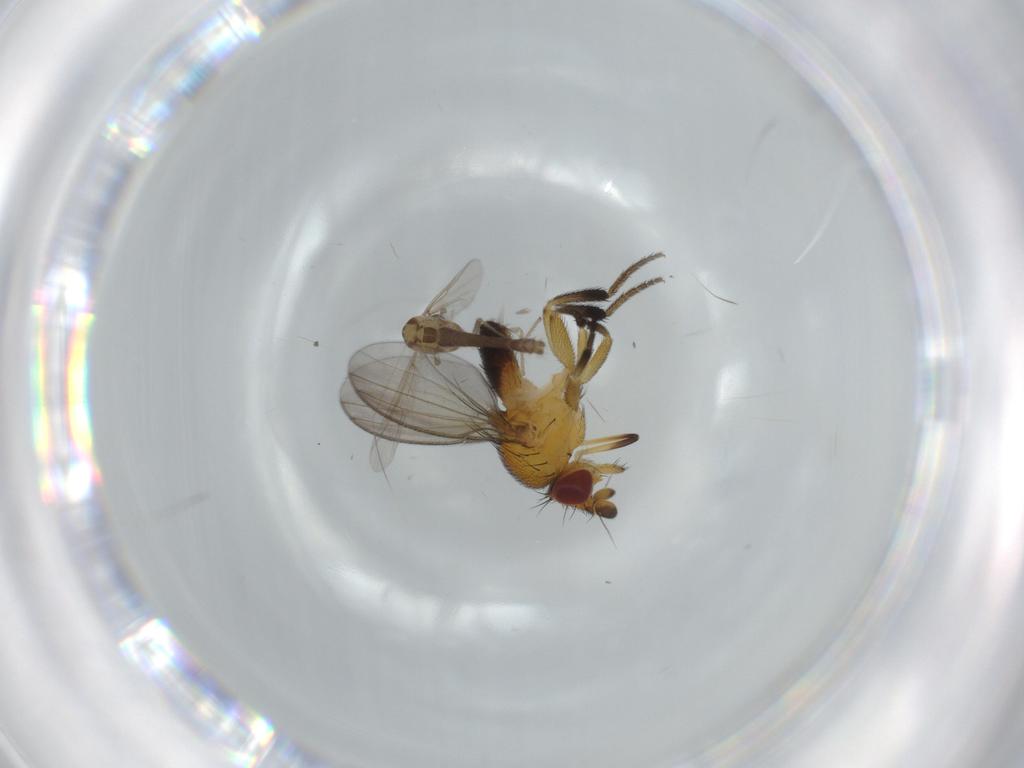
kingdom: Animalia
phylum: Arthropoda
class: Insecta
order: Diptera
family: Chironomidae
